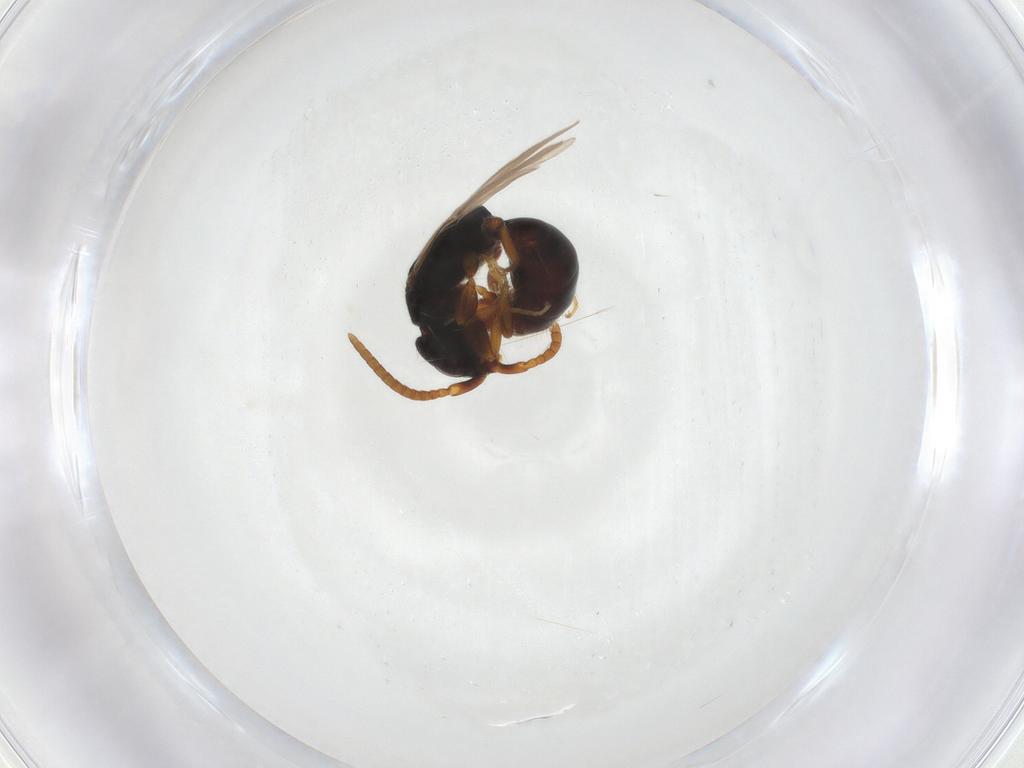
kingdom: Animalia
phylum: Arthropoda
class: Insecta
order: Hymenoptera
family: Bethylidae
